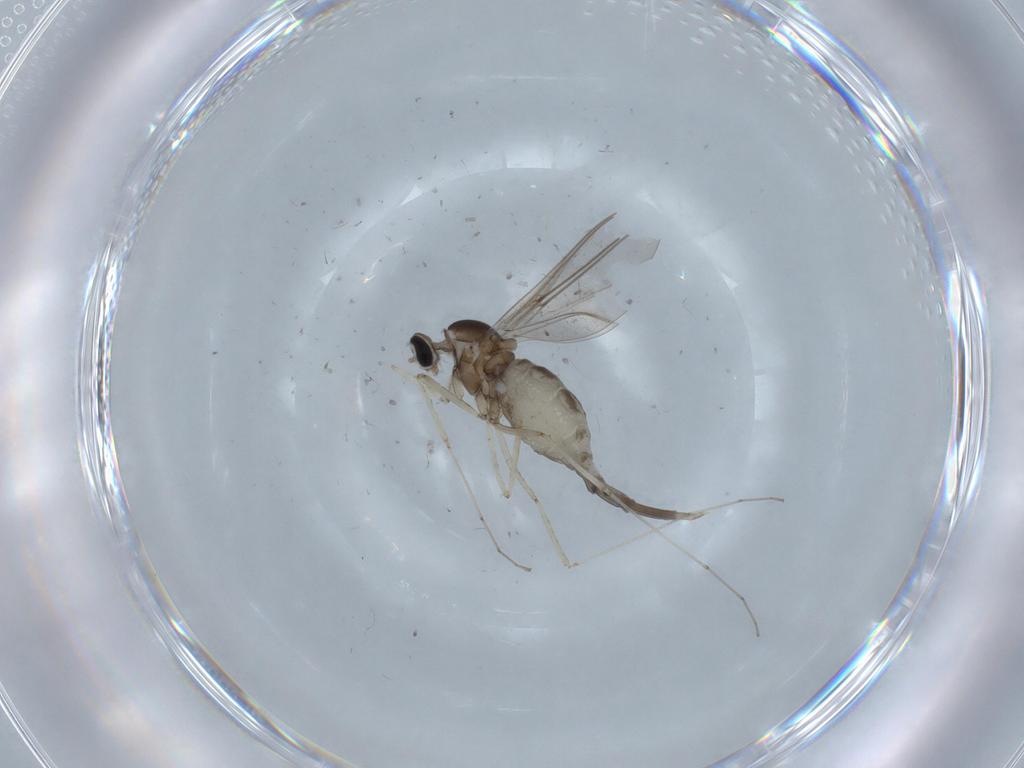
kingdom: Animalia
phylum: Arthropoda
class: Insecta
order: Diptera
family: Cecidomyiidae
